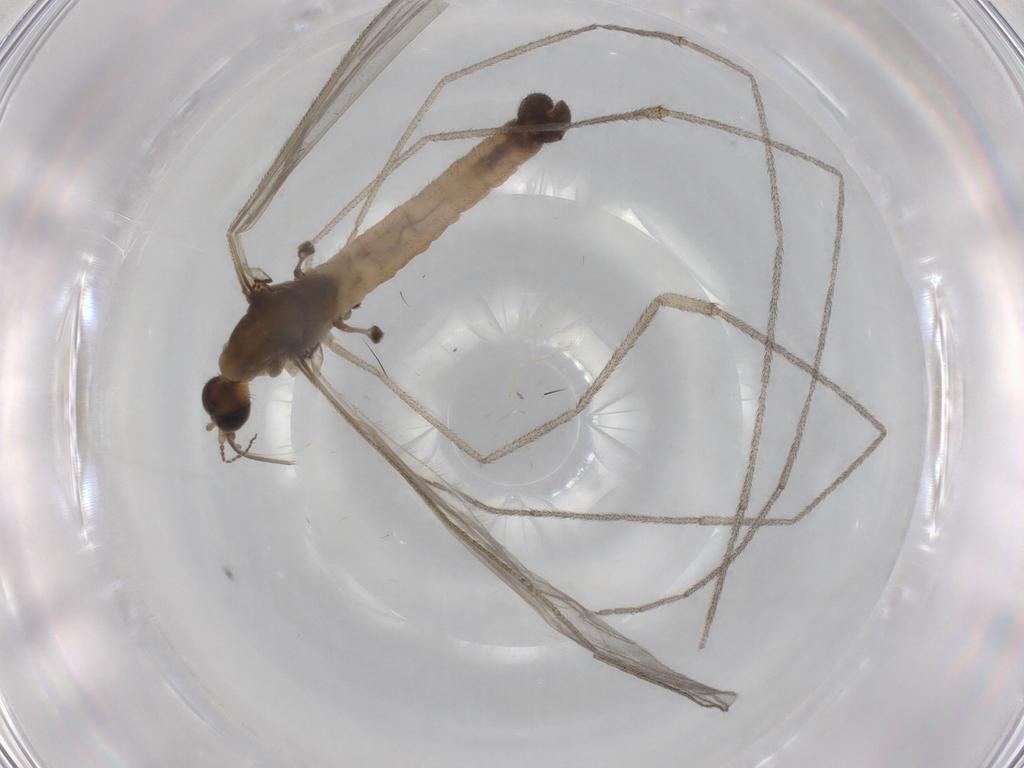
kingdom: Animalia
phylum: Arthropoda
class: Insecta
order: Diptera
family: Limoniidae
